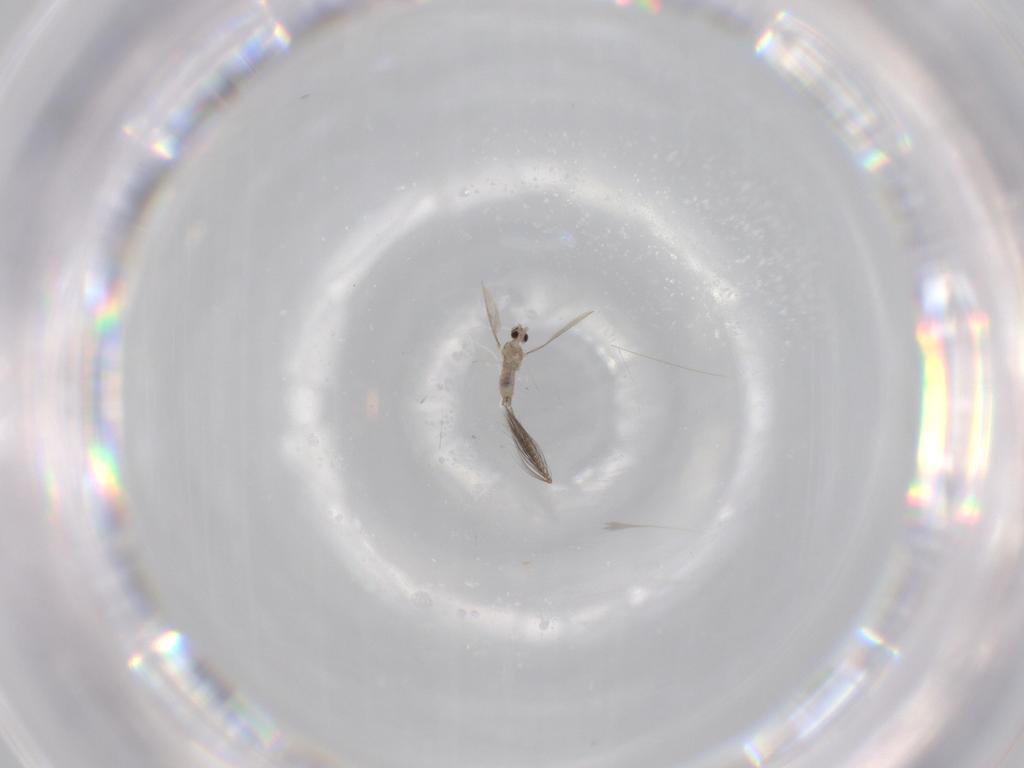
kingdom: Animalia
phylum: Arthropoda
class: Insecta
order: Diptera
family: Ceratopogonidae
